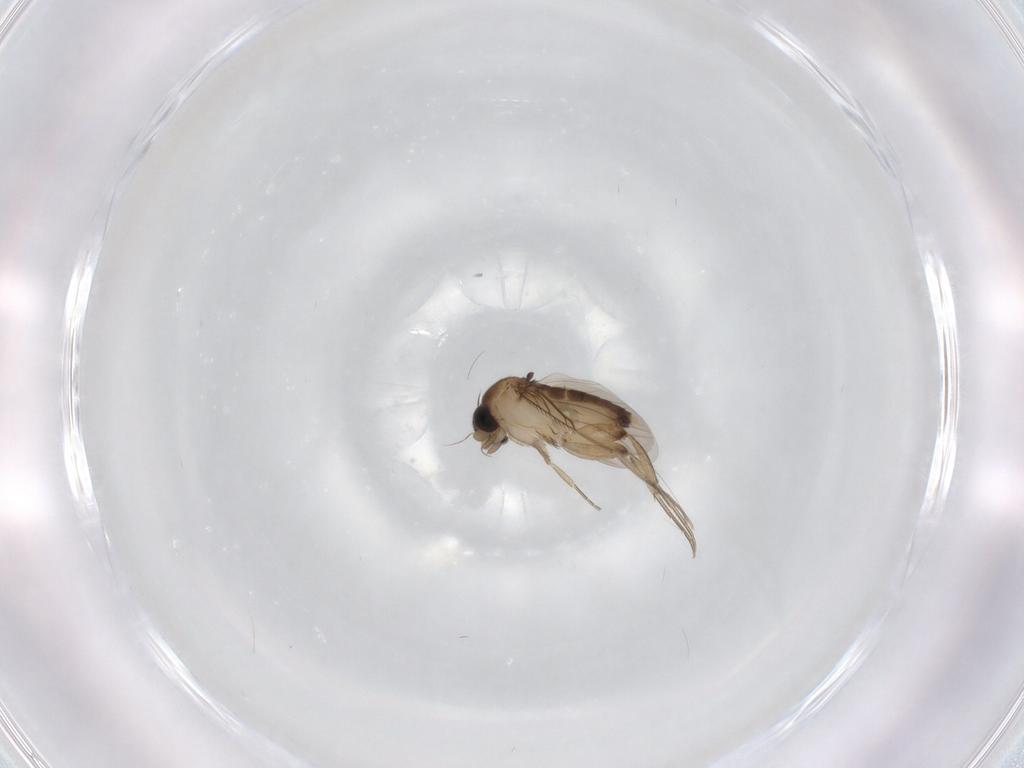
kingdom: Animalia
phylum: Arthropoda
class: Insecta
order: Diptera
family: Phoridae
